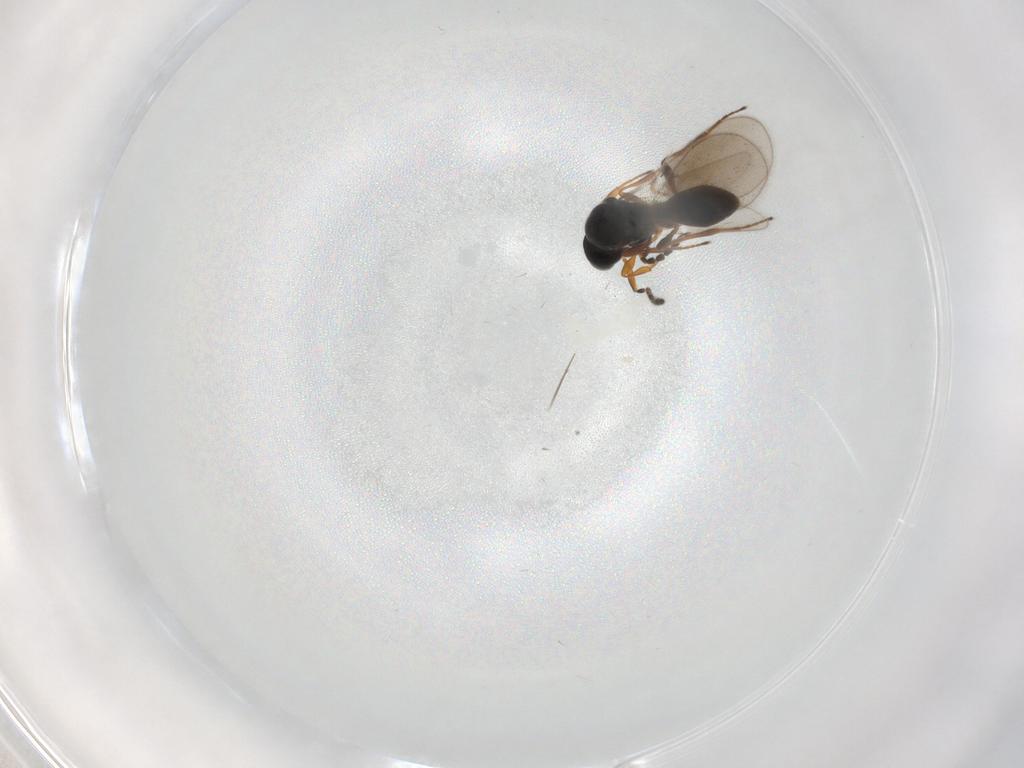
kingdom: Animalia
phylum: Arthropoda
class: Insecta
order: Hymenoptera
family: Platygastridae
